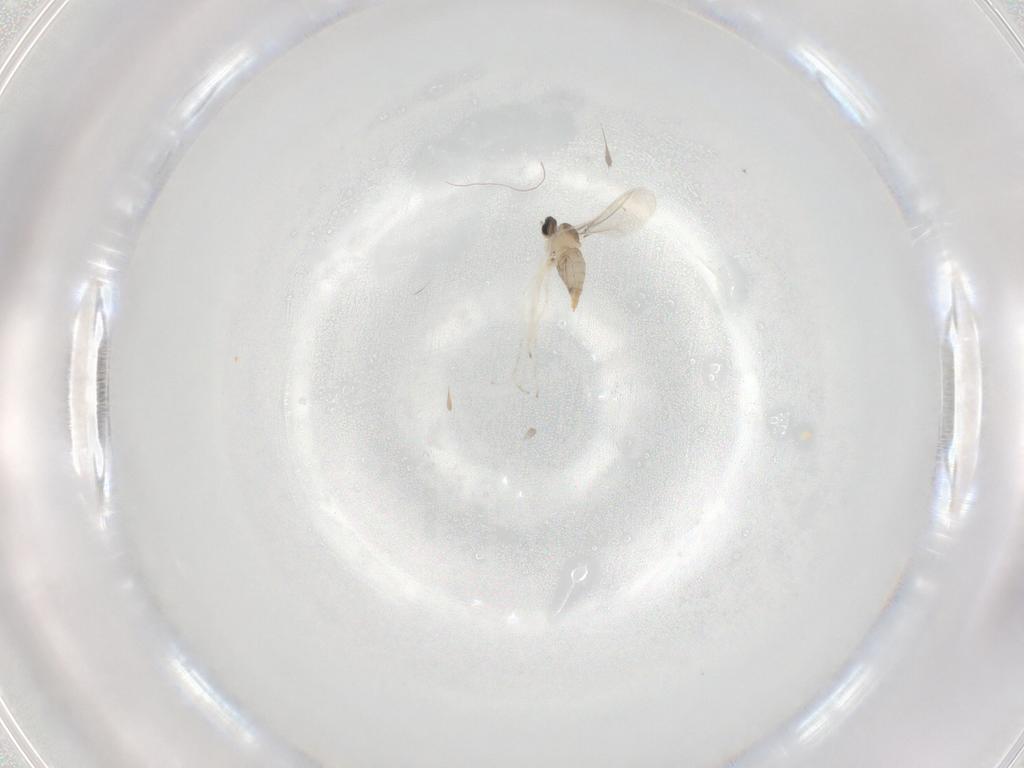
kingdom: Animalia
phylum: Arthropoda
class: Insecta
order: Diptera
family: Cecidomyiidae
